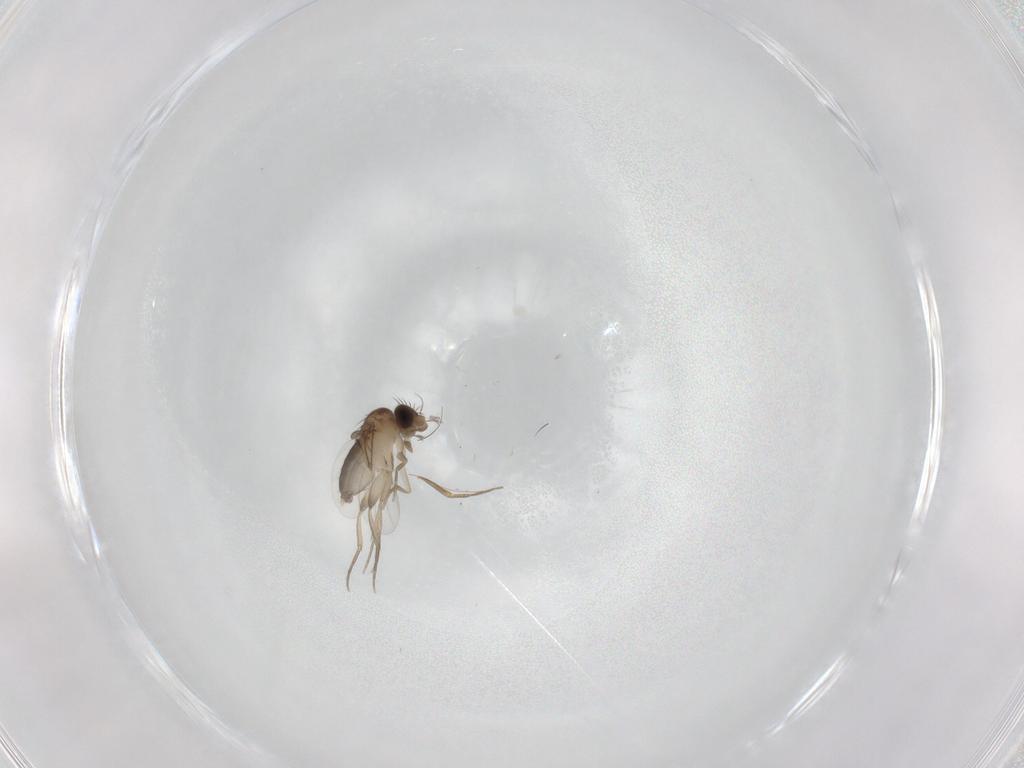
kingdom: Animalia
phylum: Arthropoda
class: Insecta
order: Diptera
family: Phoridae
